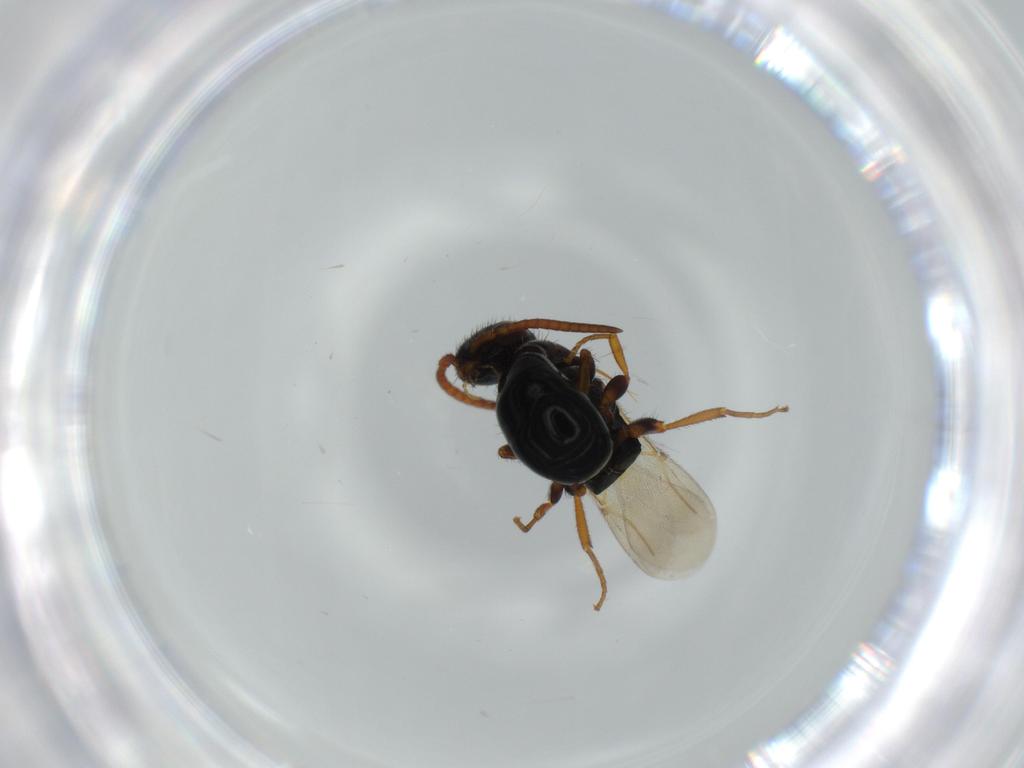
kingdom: Animalia
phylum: Arthropoda
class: Insecta
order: Hymenoptera
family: Bethylidae
